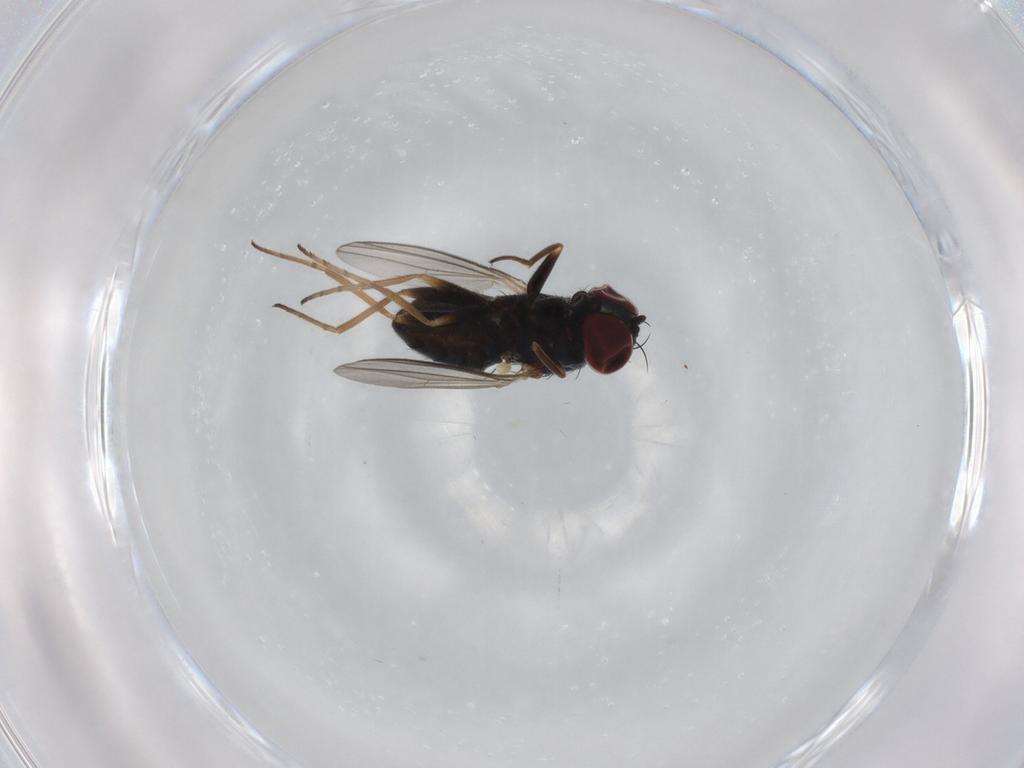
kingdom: Animalia
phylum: Arthropoda
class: Insecta
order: Diptera
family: Dolichopodidae
